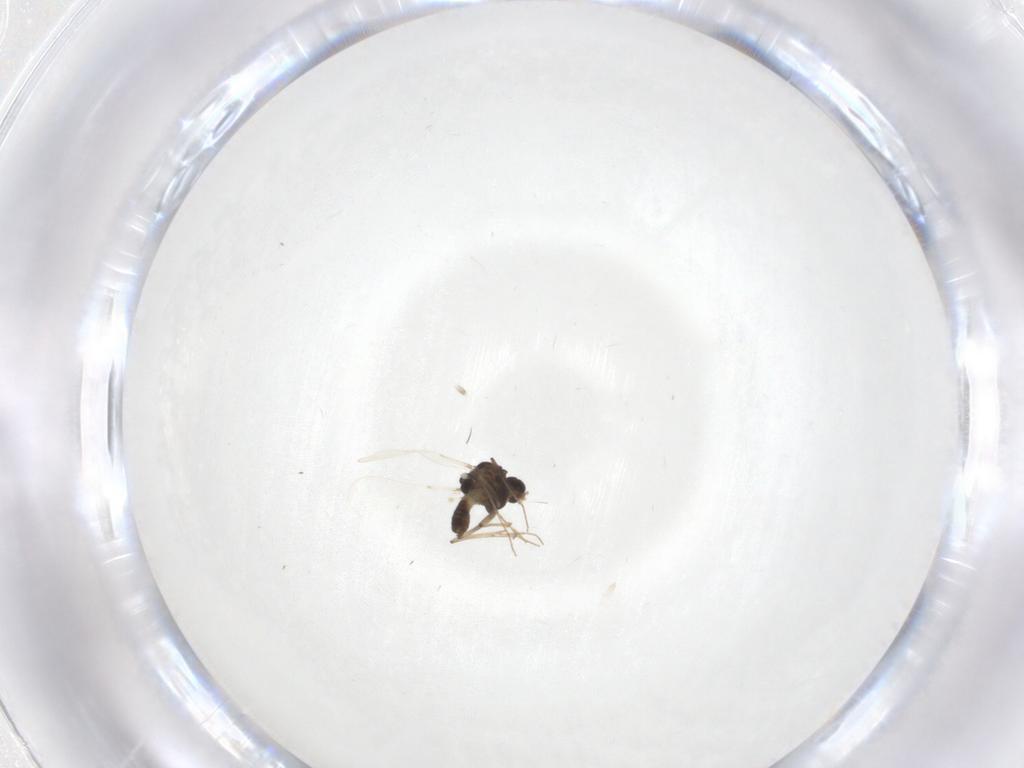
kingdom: Animalia
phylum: Arthropoda
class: Insecta
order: Diptera
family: Chironomidae
